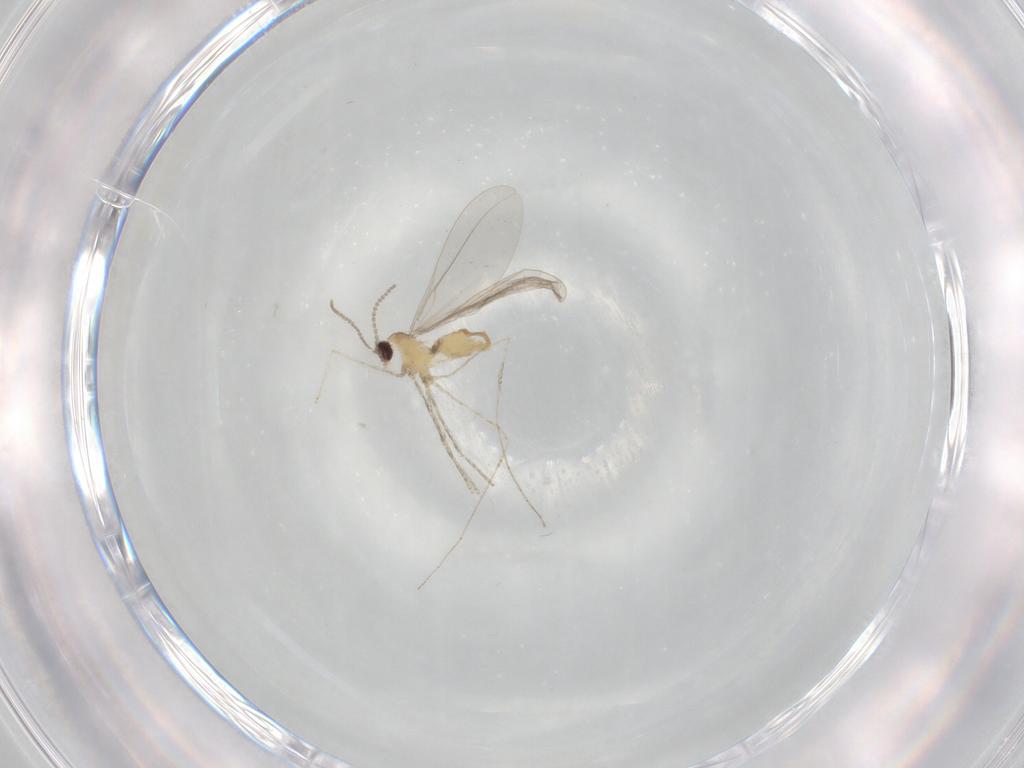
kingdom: Animalia
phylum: Arthropoda
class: Insecta
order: Diptera
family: Cecidomyiidae
